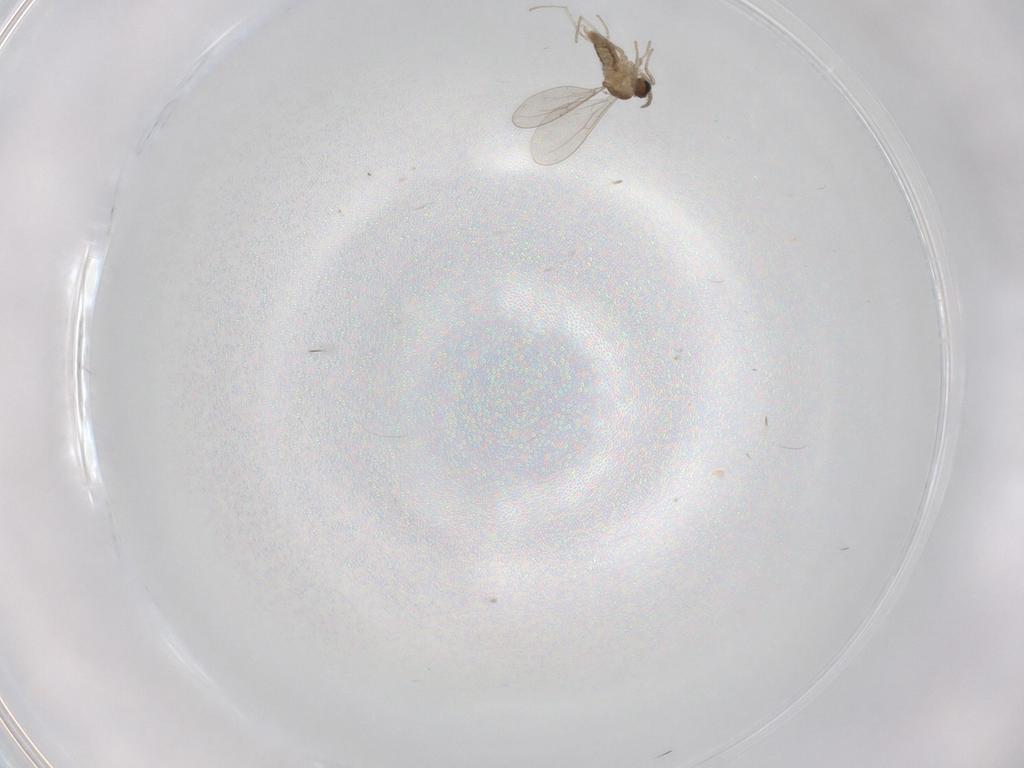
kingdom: Animalia
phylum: Arthropoda
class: Insecta
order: Diptera
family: Cecidomyiidae
